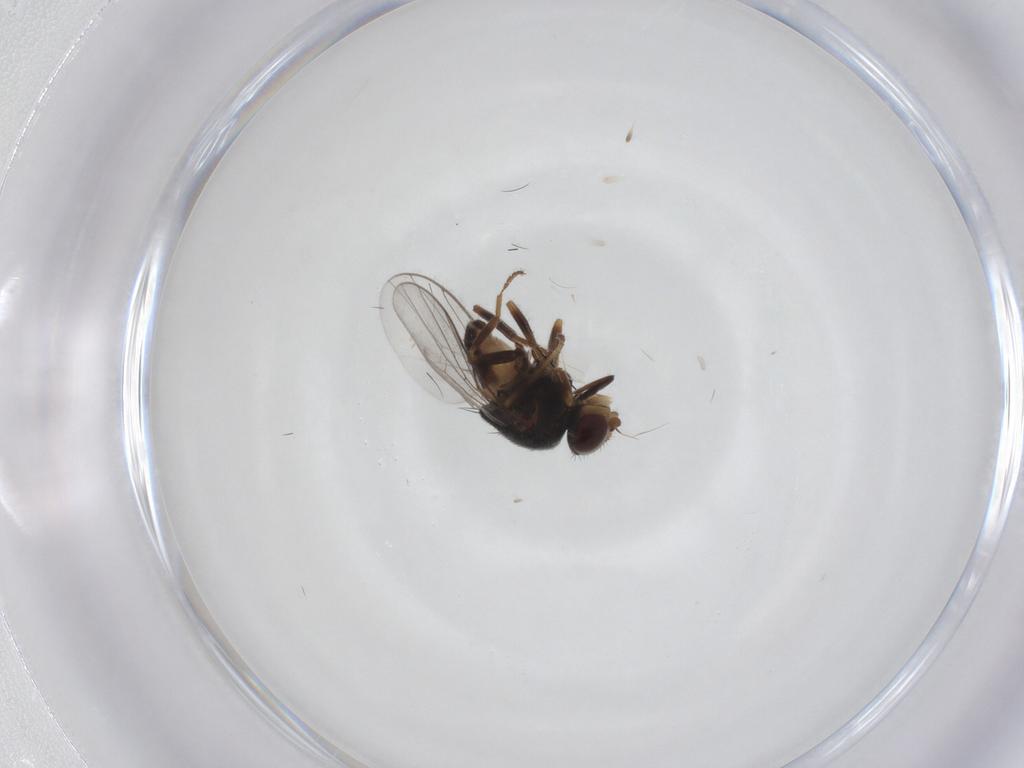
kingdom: Animalia
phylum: Arthropoda
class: Insecta
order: Diptera
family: Chloropidae
